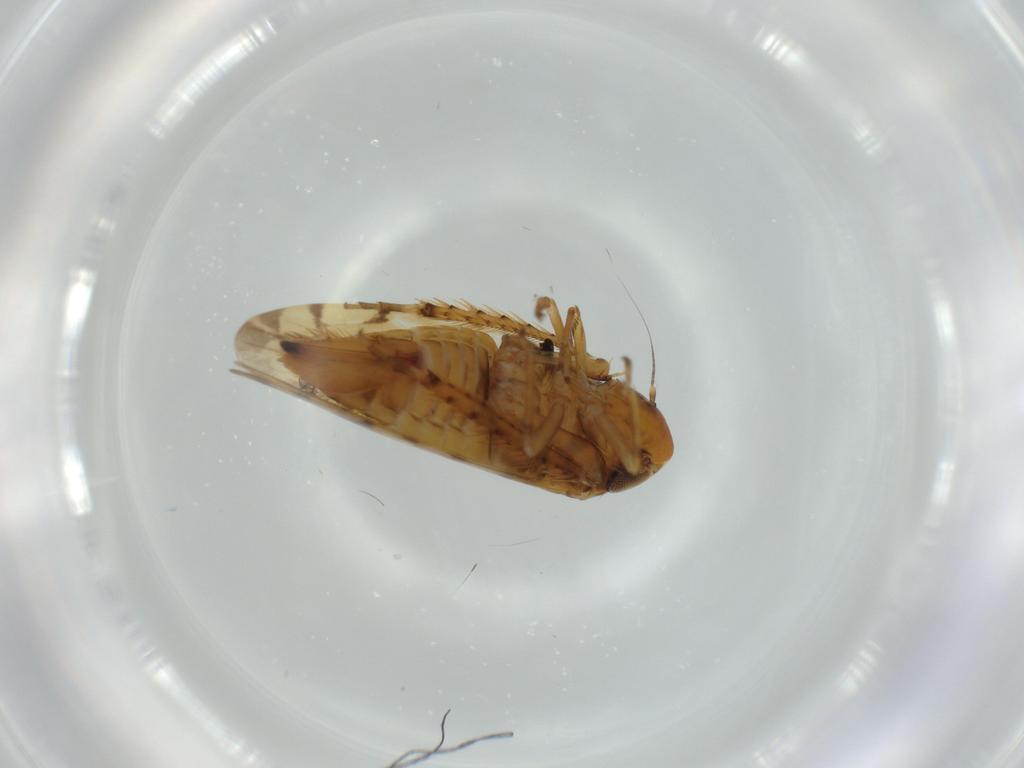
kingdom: Animalia
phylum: Arthropoda
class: Insecta
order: Hemiptera
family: Cicadellidae
